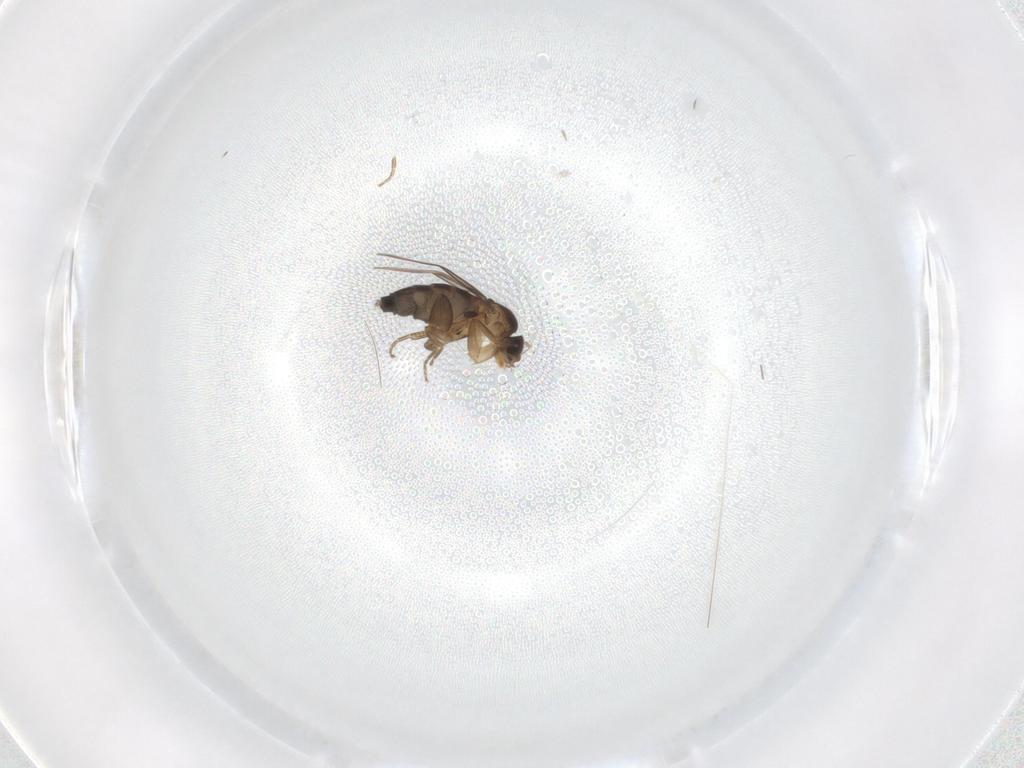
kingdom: Animalia
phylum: Arthropoda
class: Insecta
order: Diptera
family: Phoridae
